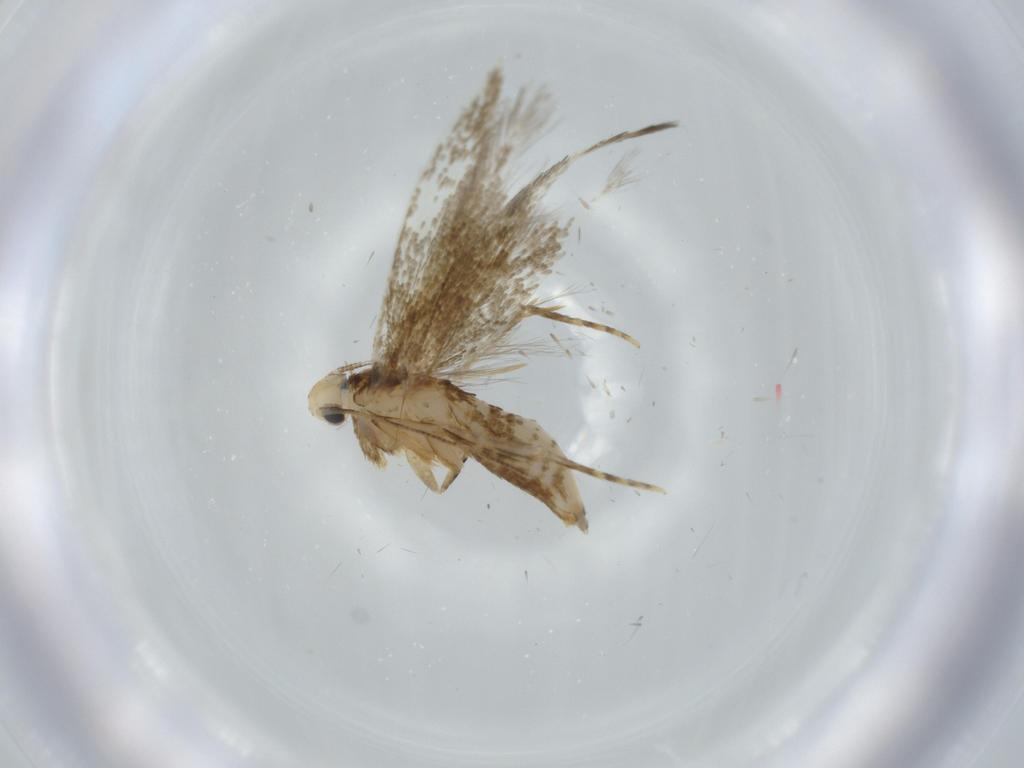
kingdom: Animalia
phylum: Arthropoda
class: Insecta
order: Lepidoptera
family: Tineidae
